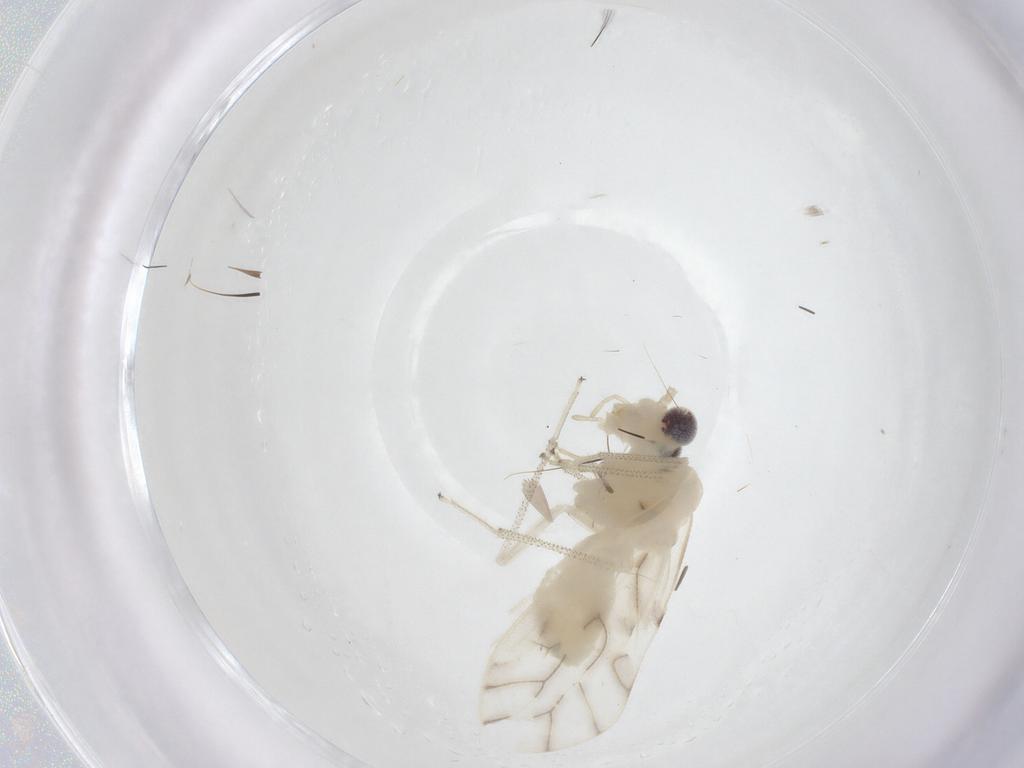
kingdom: Animalia
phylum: Arthropoda
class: Insecta
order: Psocodea
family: Caeciliusidae
